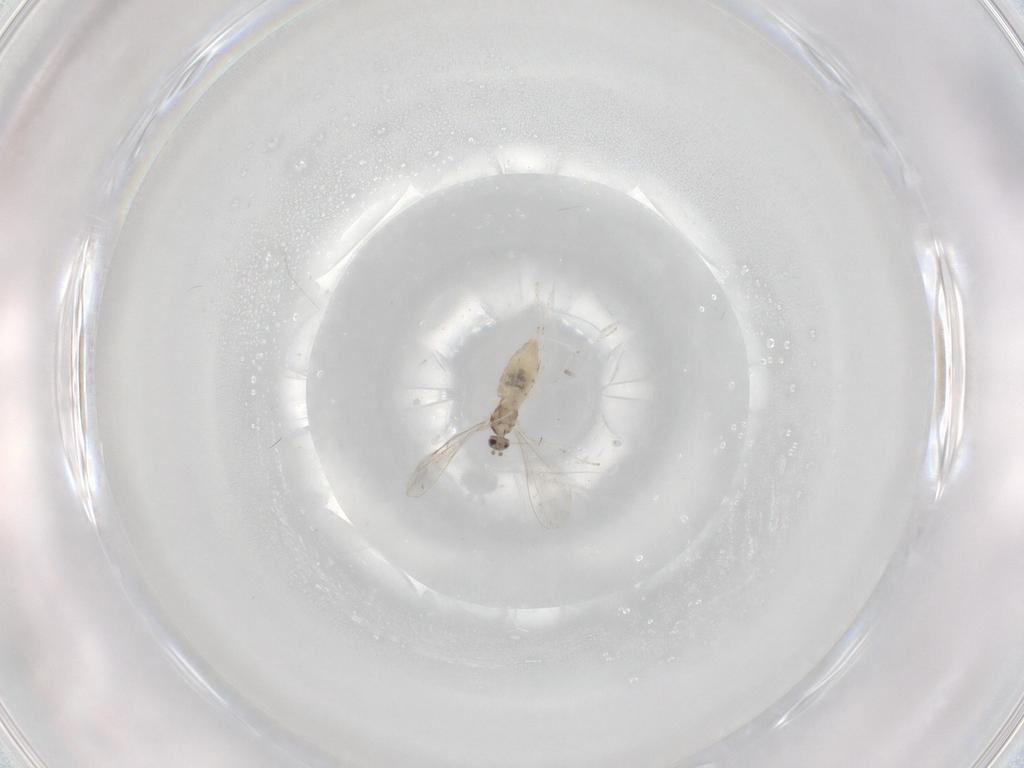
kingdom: Animalia
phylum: Arthropoda
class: Insecta
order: Diptera
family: Cecidomyiidae
